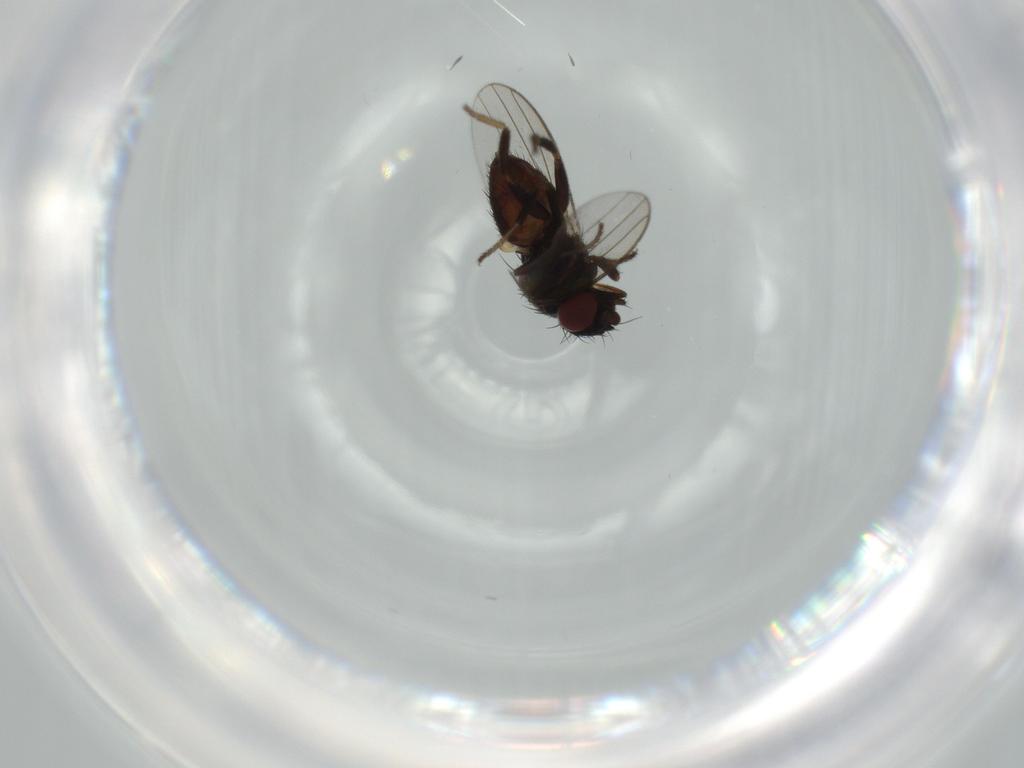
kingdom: Animalia
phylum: Arthropoda
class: Insecta
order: Diptera
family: Milichiidae
